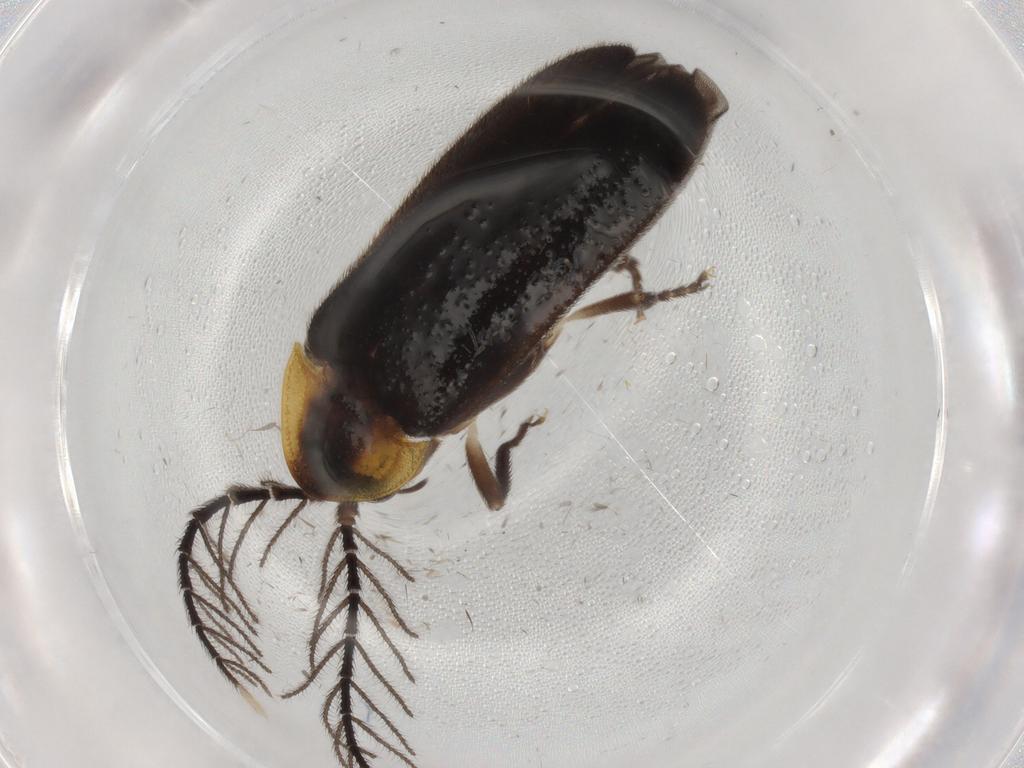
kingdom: Animalia
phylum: Arthropoda
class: Insecta
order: Coleoptera
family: Lampyridae
